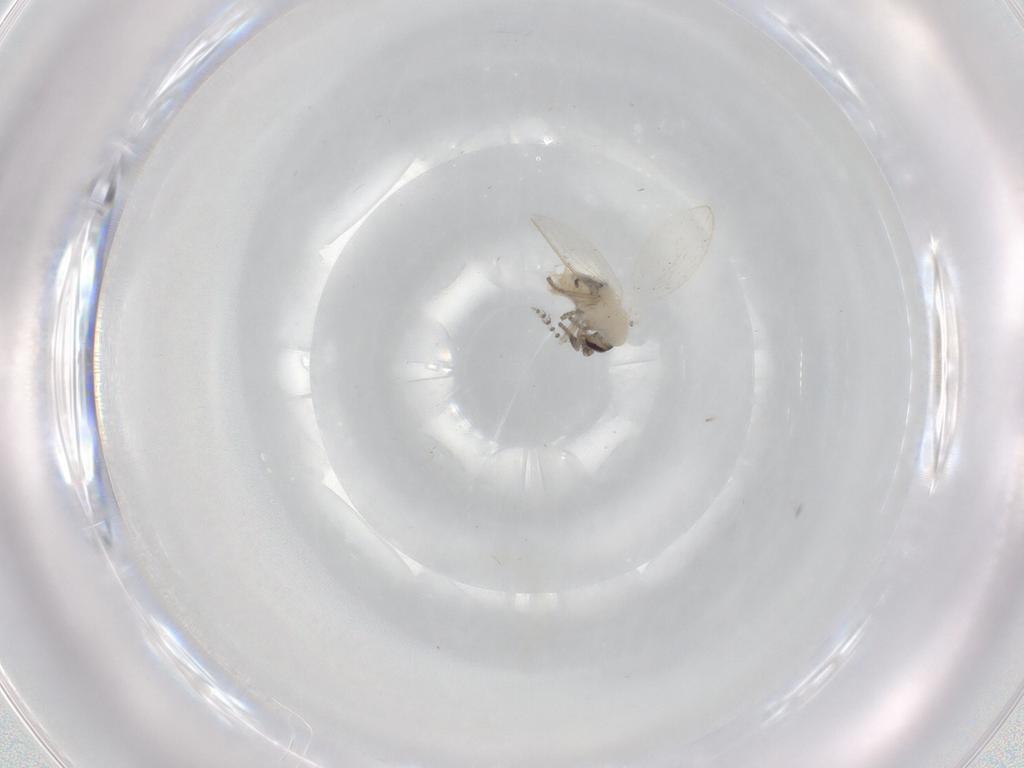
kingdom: Animalia
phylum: Arthropoda
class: Insecta
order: Diptera
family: Psychodidae
